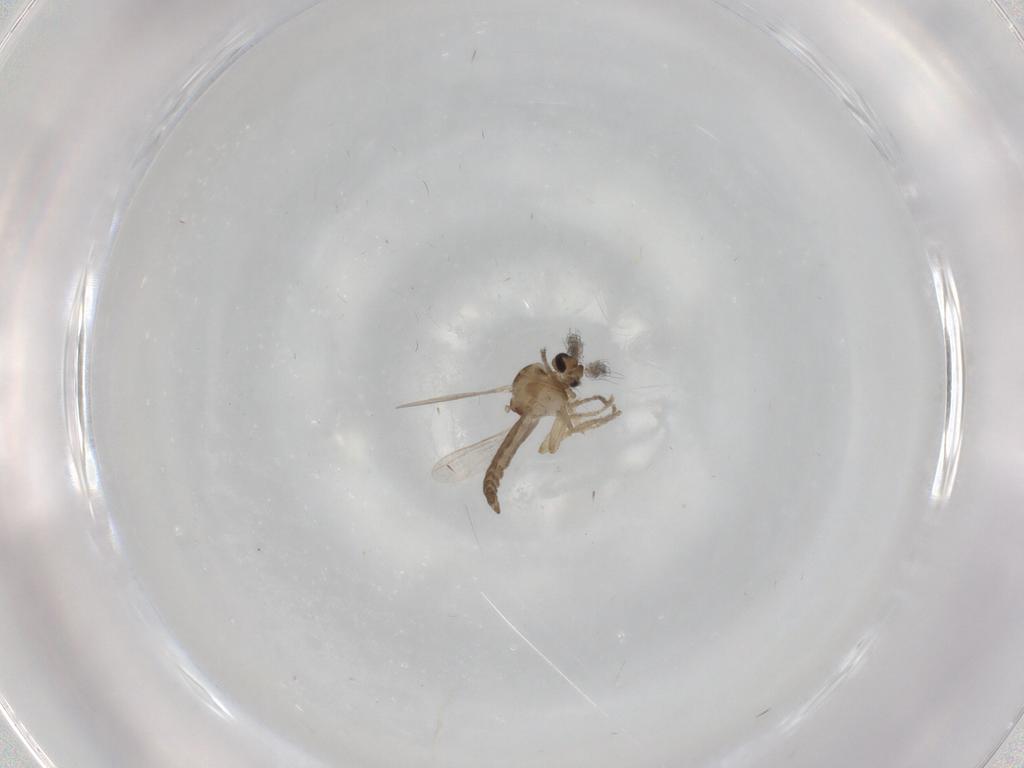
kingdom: Animalia
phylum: Arthropoda
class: Insecta
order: Diptera
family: Ceratopogonidae
